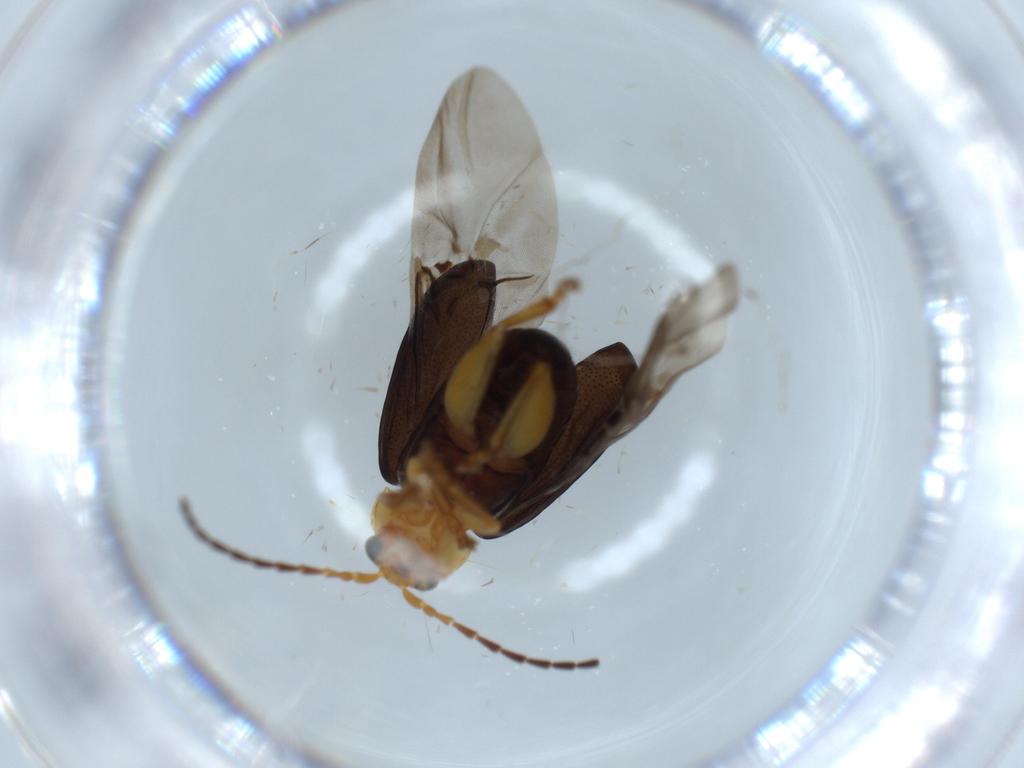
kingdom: Animalia
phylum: Arthropoda
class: Insecta
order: Coleoptera
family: Chrysomelidae
